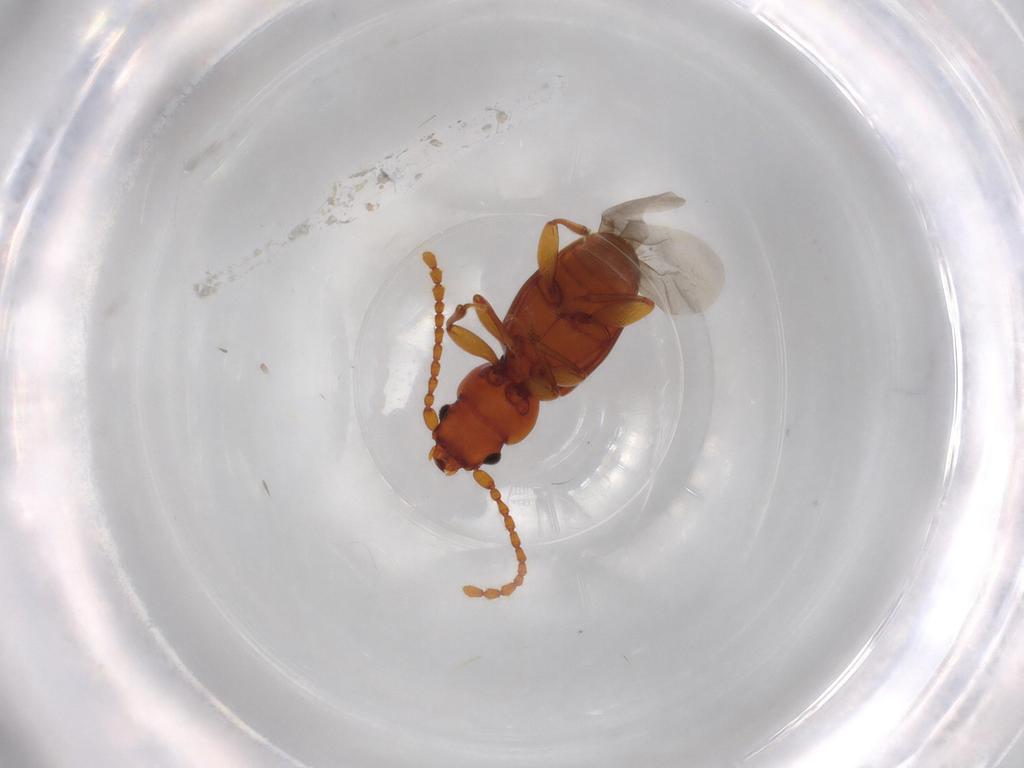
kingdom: Animalia
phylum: Arthropoda
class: Insecta
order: Coleoptera
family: Laemophloeidae
